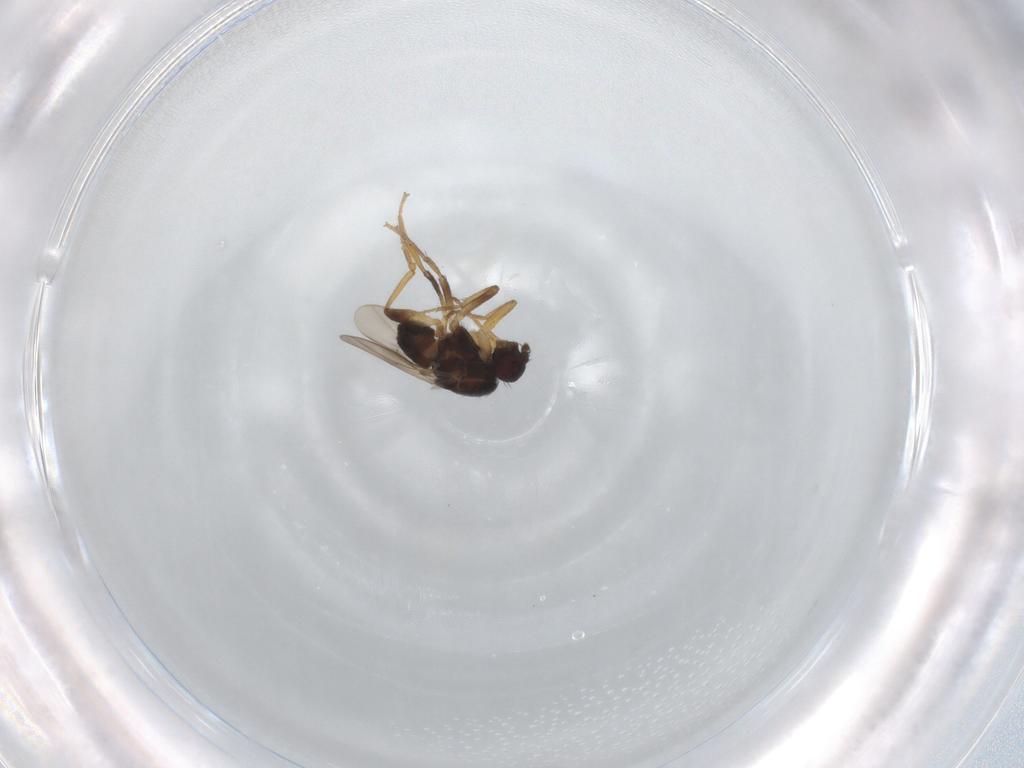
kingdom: Animalia
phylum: Arthropoda
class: Insecta
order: Diptera
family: Sphaeroceridae
